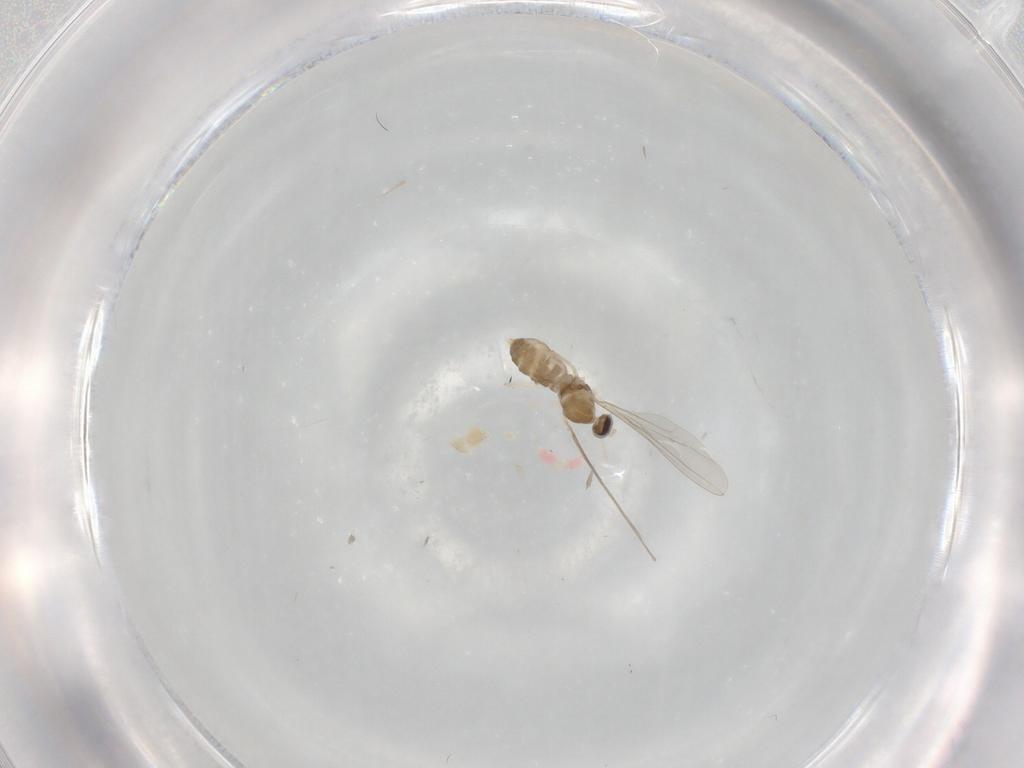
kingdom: Animalia
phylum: Arthropoda
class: Insecta
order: Diptera
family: Cecidomyiidae
